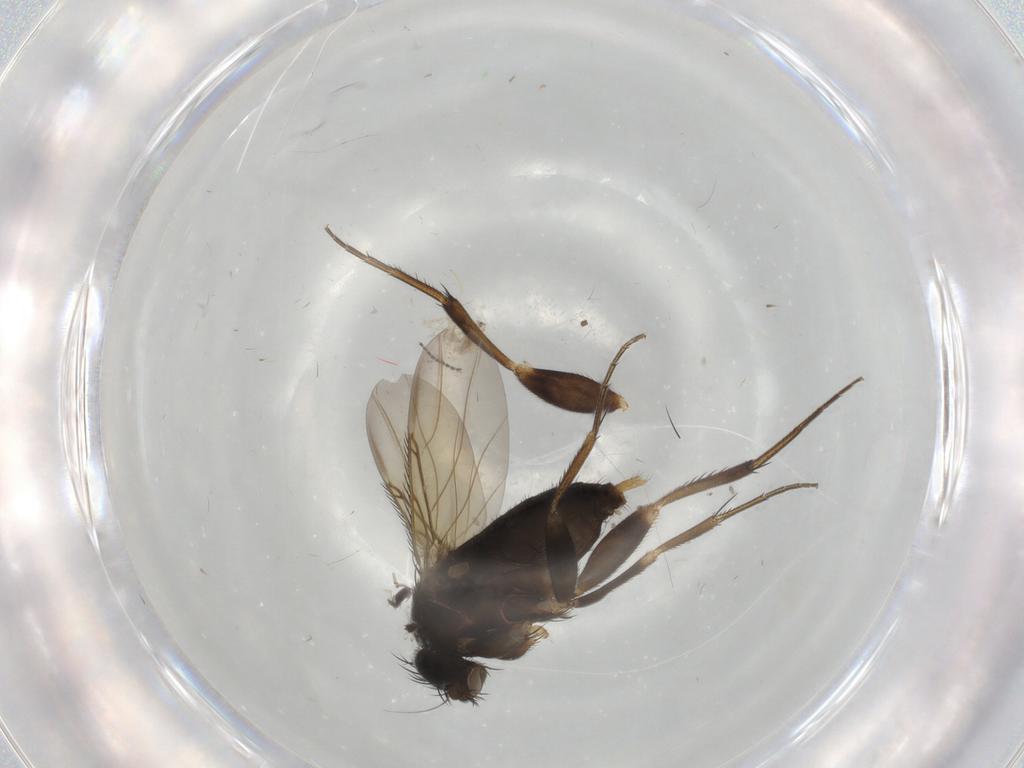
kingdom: Animalia
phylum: Arthropoda
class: Insecta
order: Diptera
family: Phoridae
